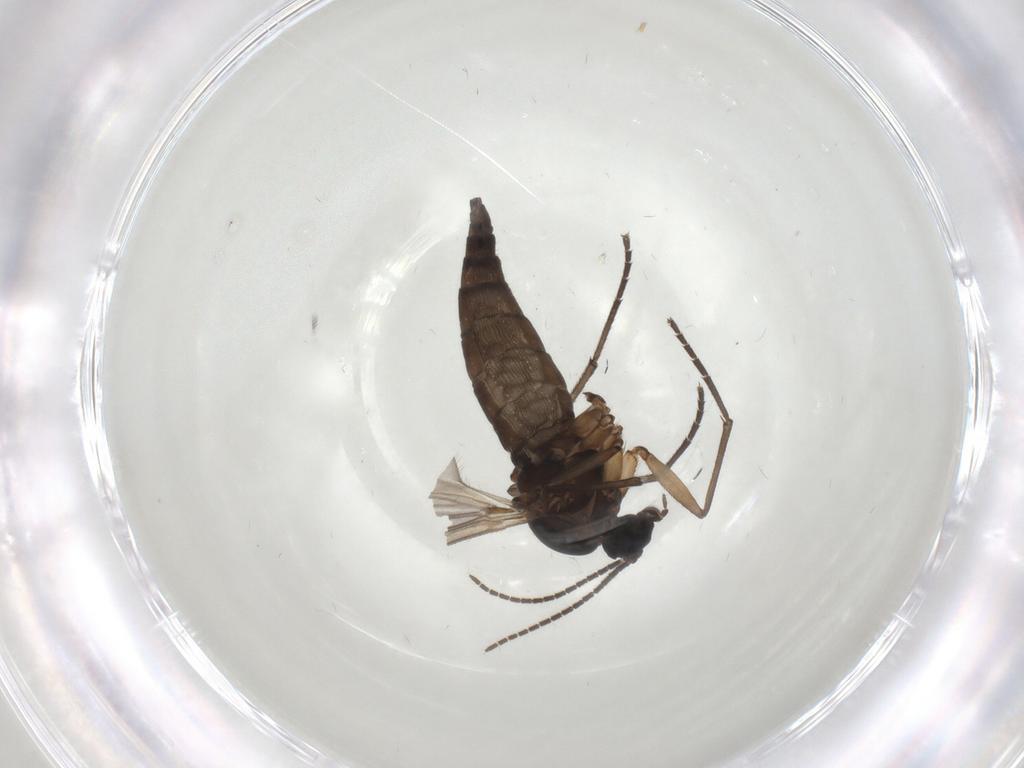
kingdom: Animalia
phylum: Arthropoda
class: Insecta
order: Diptera
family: Sciaridae
